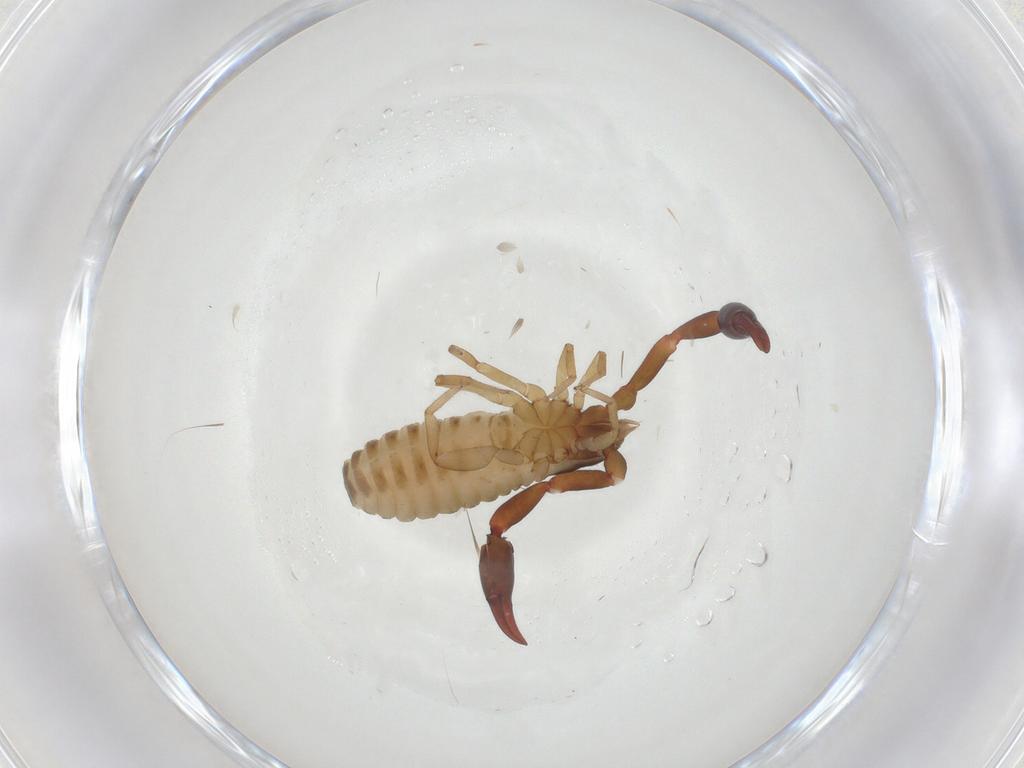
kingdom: Animalia
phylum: Arthropoda
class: Arachnida
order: Pseudoscorpiones
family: Withiidae
